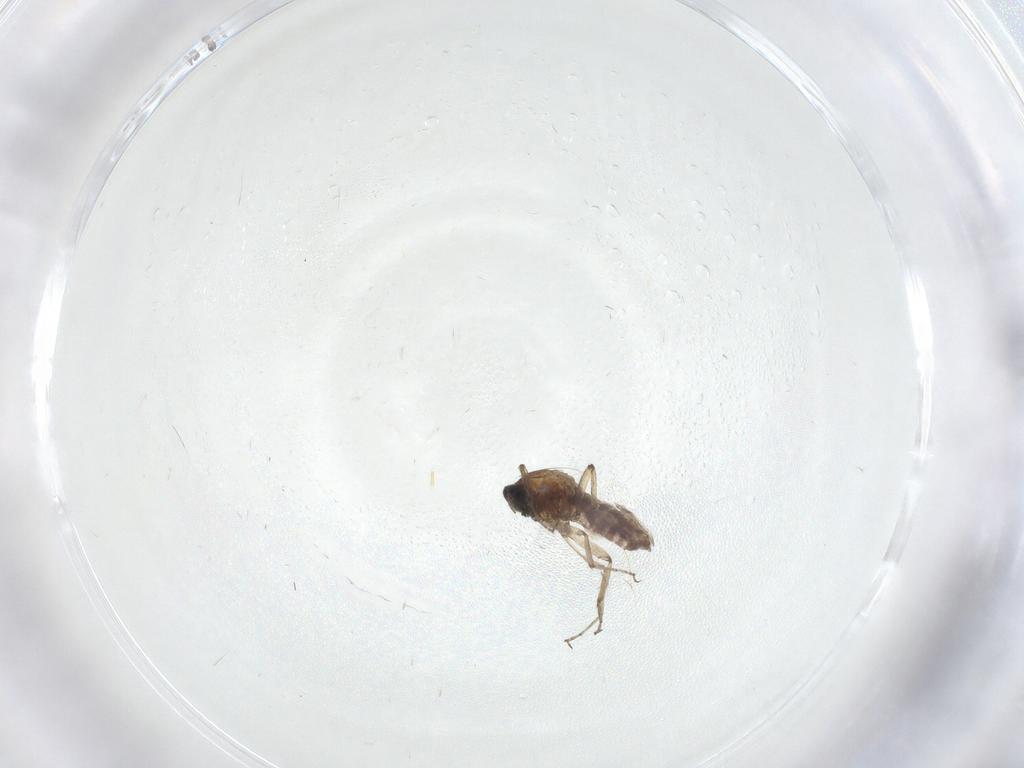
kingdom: Animalia
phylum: Arthropoda
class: Insecta
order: Diptera
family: Ceratopogonidae
